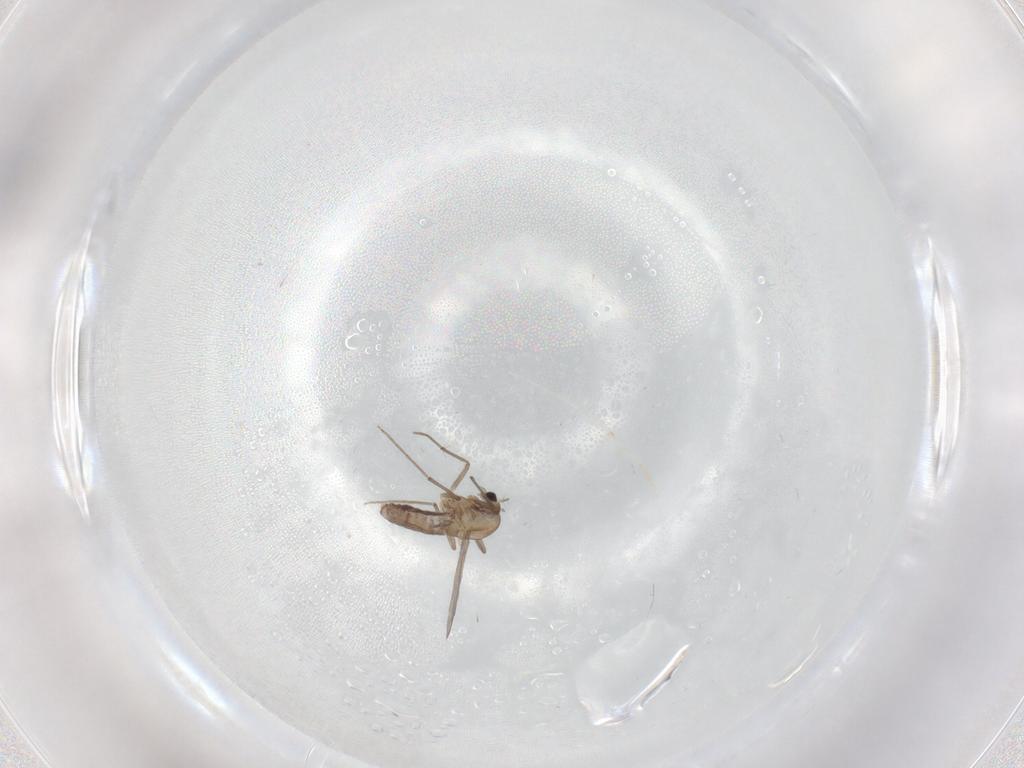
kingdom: Animalia
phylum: Arthropoda
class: Insecta
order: Diptera
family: Chironomidae
